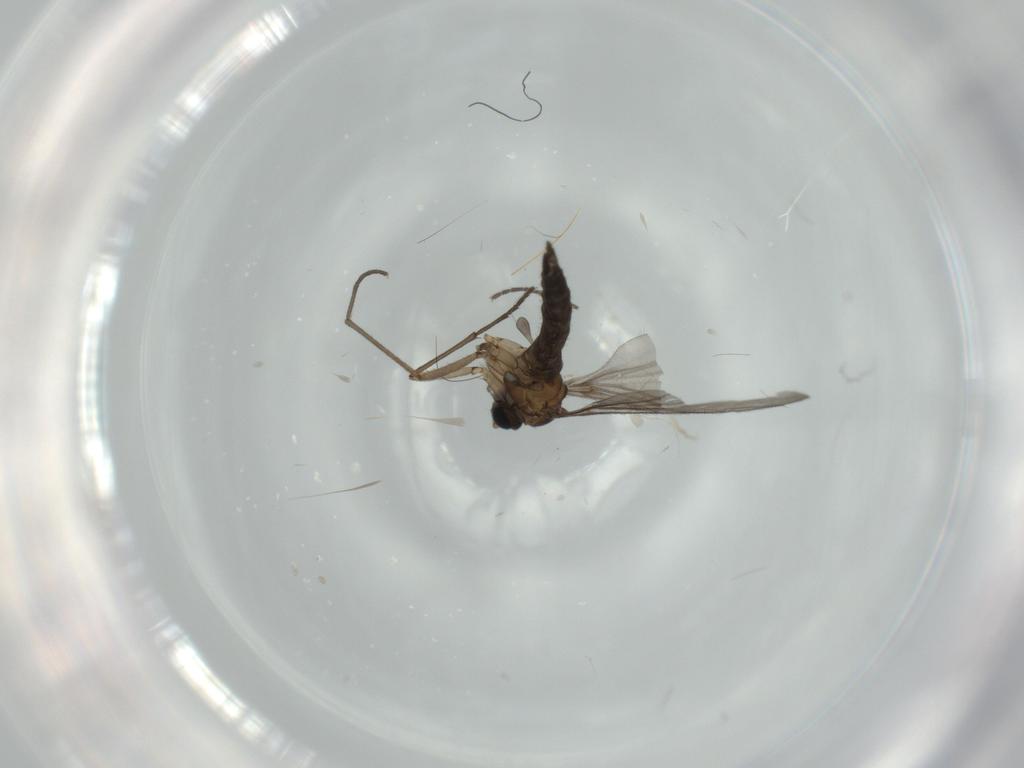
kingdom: Animalia
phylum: Arthropoda
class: Insecta
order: Diptera
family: Sciaridae
